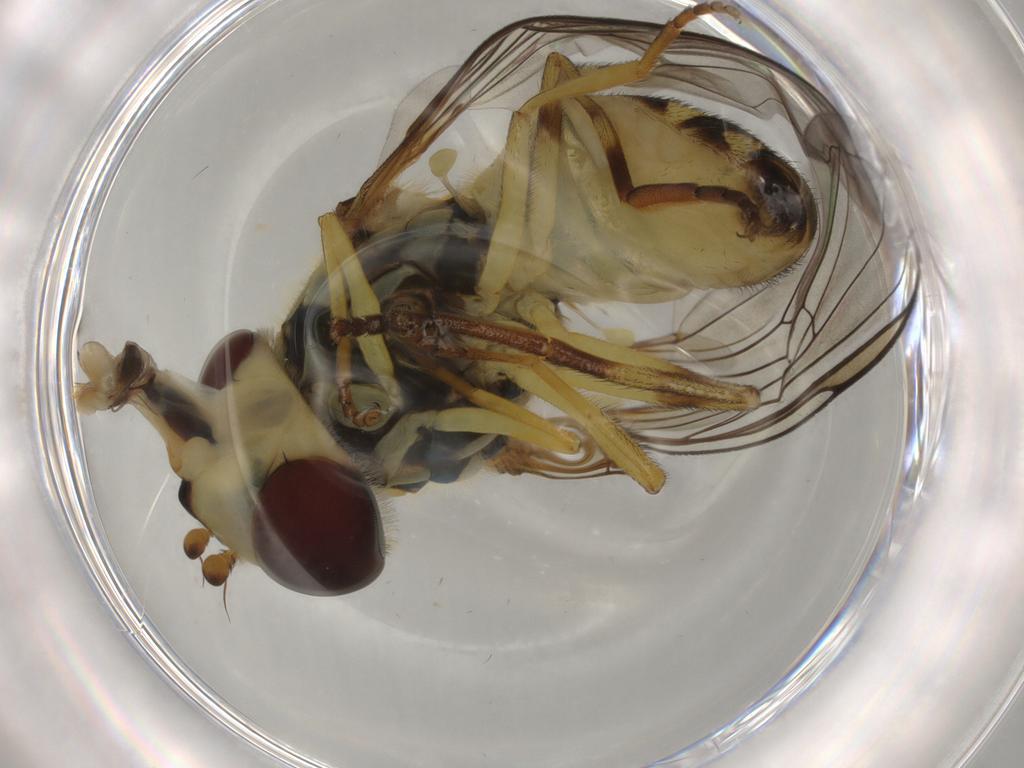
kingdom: Animalia
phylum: Arthropoda
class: Insecta
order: Diptera
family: Syrphidae
